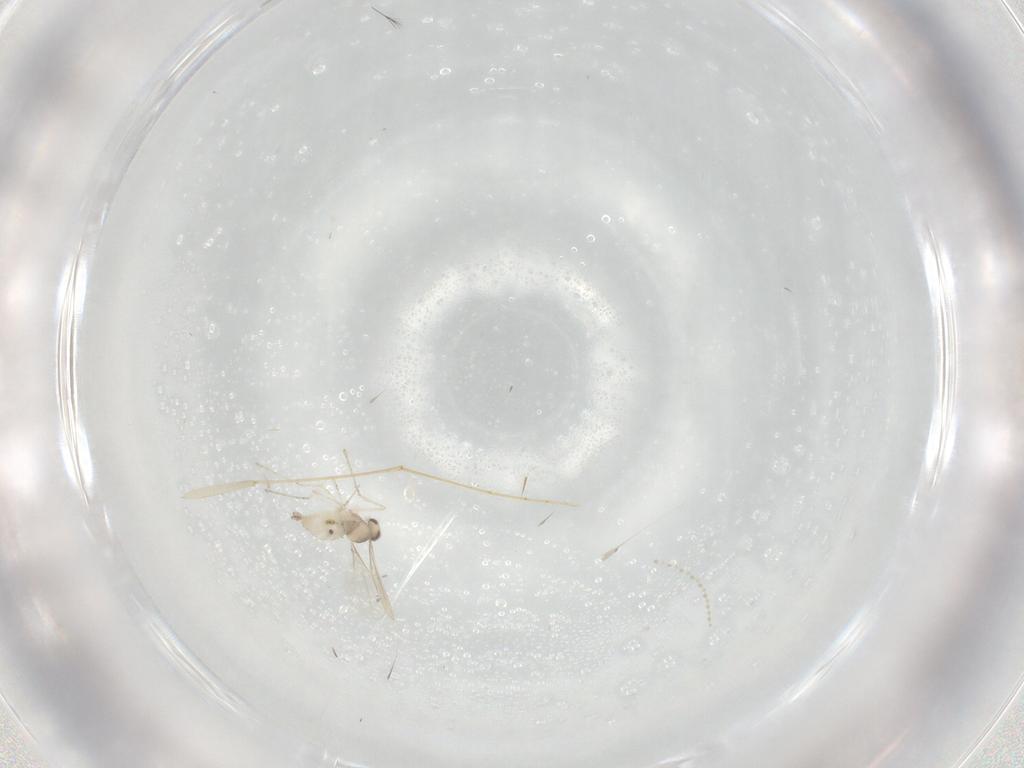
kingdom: Animalia
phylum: Arthropoda
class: Insecta
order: Diptera
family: Cecidomyiidae
